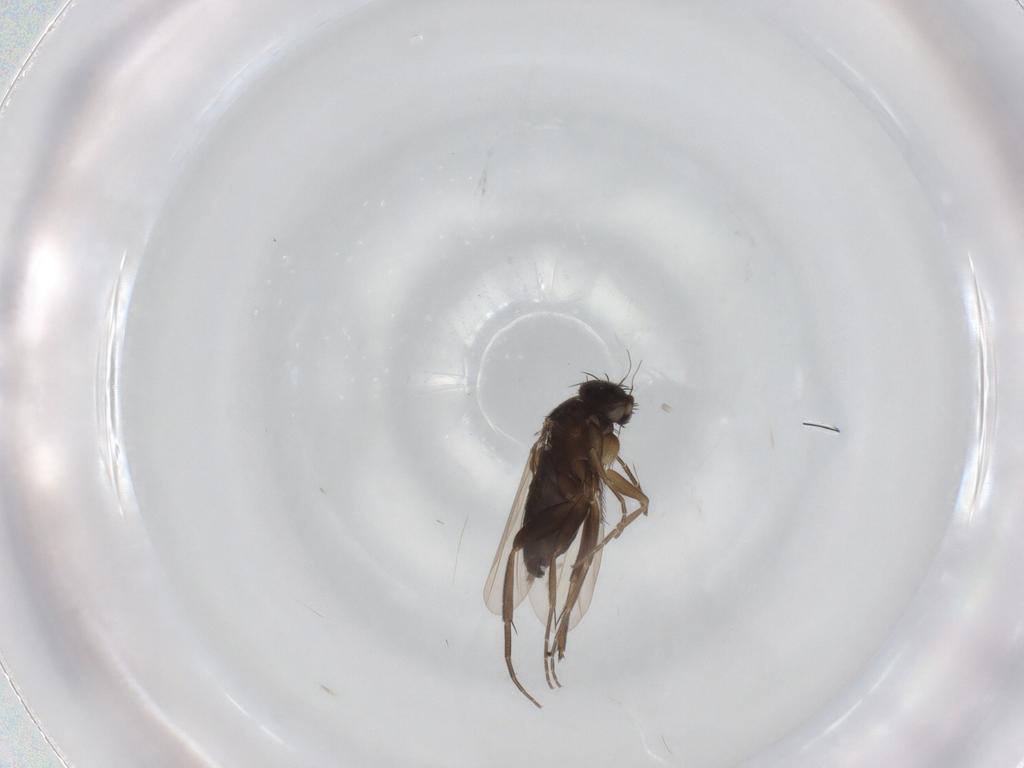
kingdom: Animalia
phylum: Arthropoda
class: Insecta
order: Diptera
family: Phoridae
